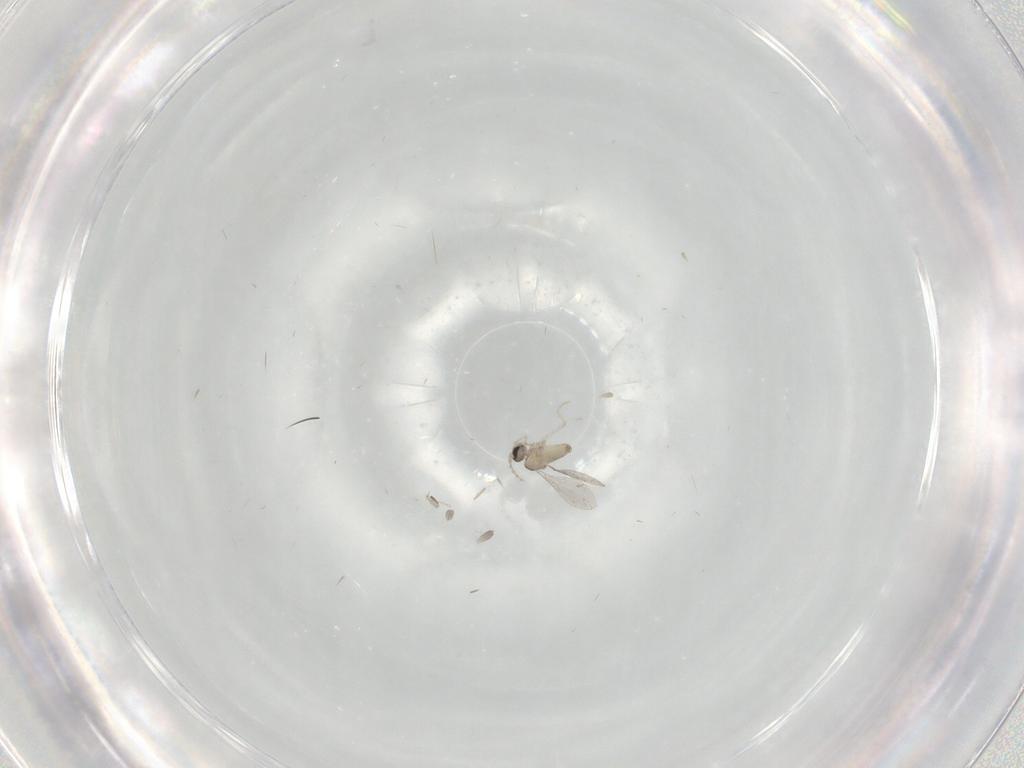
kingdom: Animalia
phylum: Arthropoda
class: Insecta
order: Diptera
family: Cecidomyiidae
